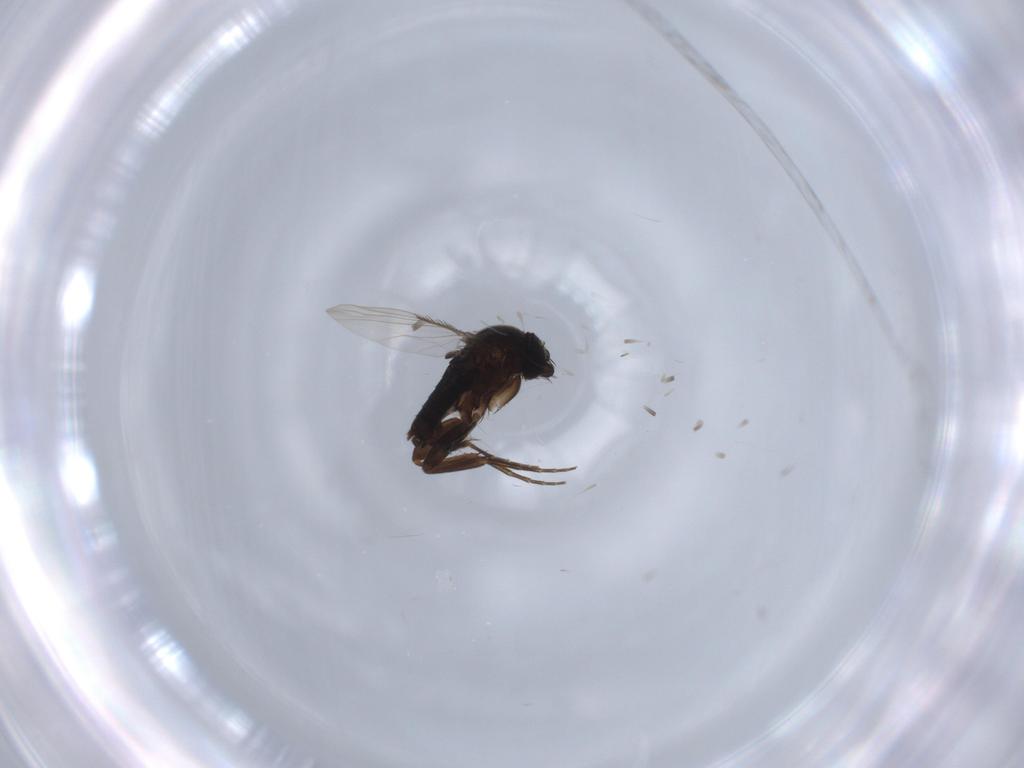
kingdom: Animalia
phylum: Arthropoda
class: Insecta
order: Diptera
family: Phoridae
